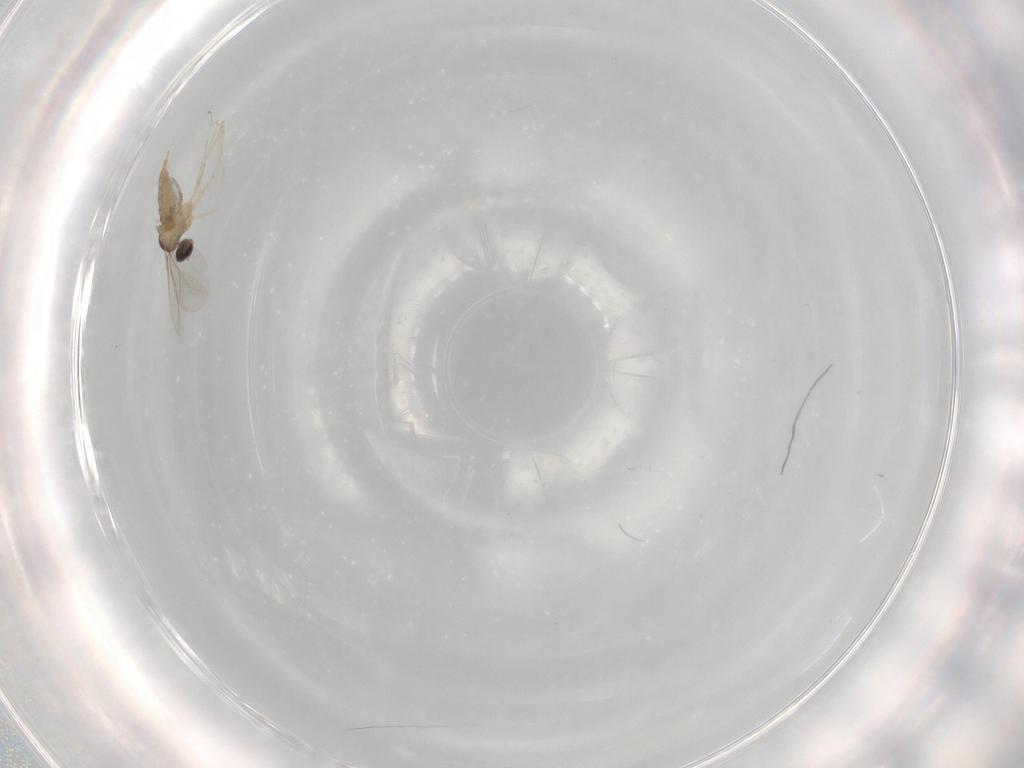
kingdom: Animalia
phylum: Arthropoda
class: Insecta
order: Diptera
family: Cecidomyiidae
